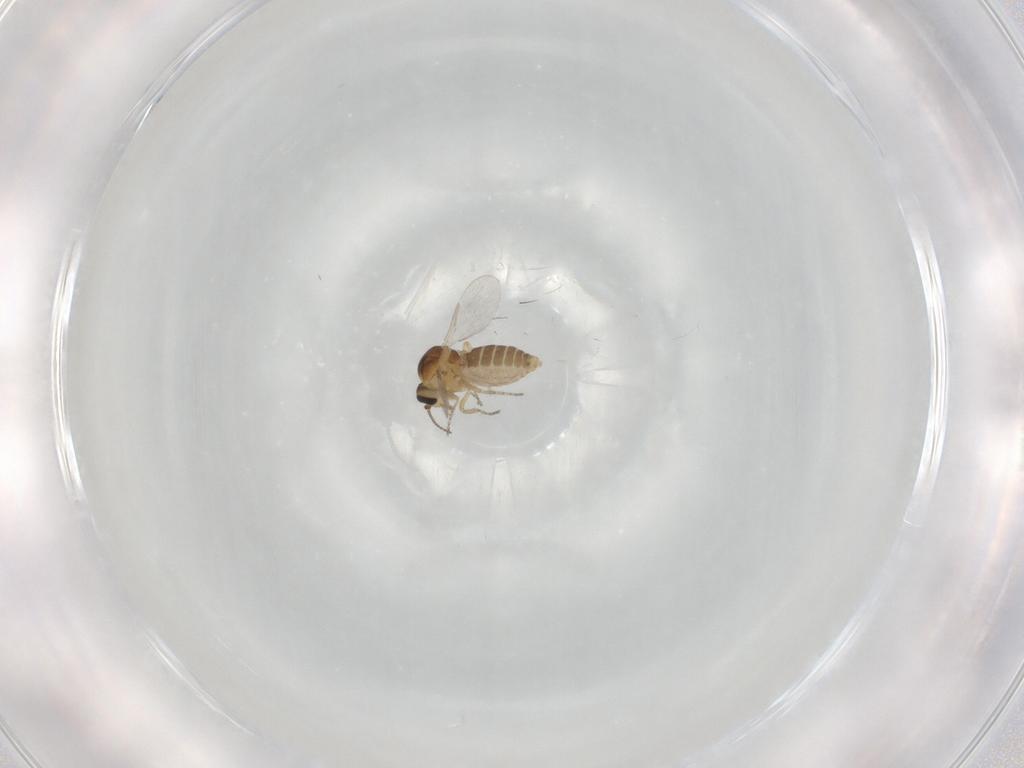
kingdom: Animalia
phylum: Arthropoda
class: Insecta
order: Diptera
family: Ceratopogonidae
